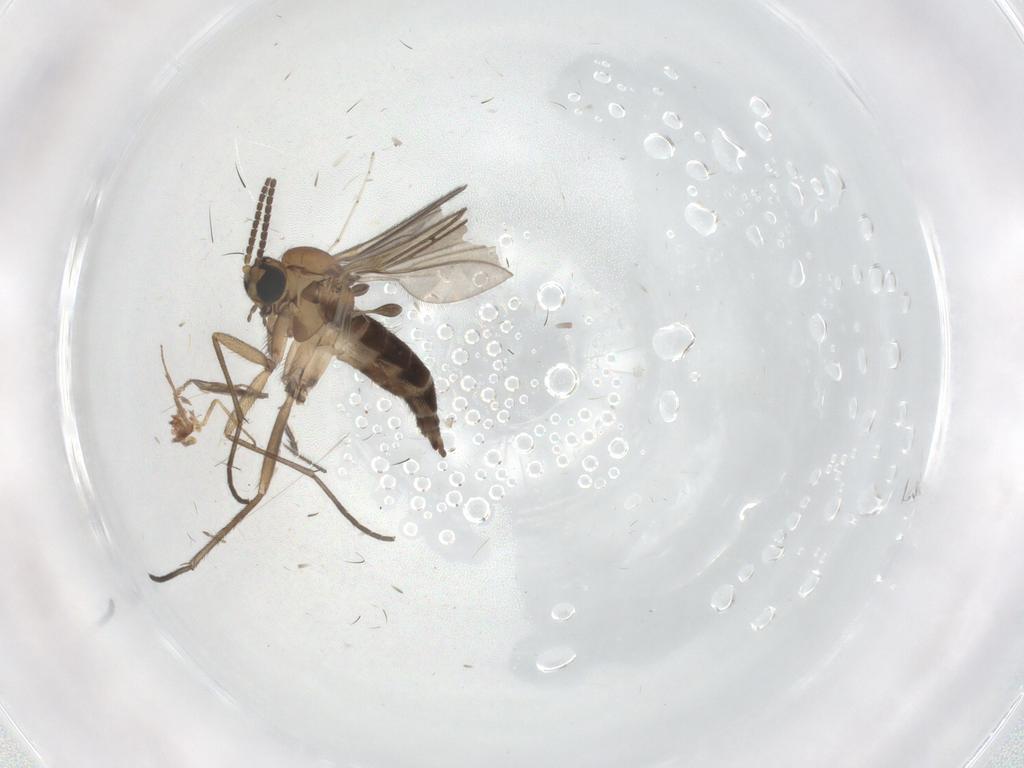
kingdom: Animalia
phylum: Arthropoda
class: Insecta
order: Diptera
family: Sciaridae
